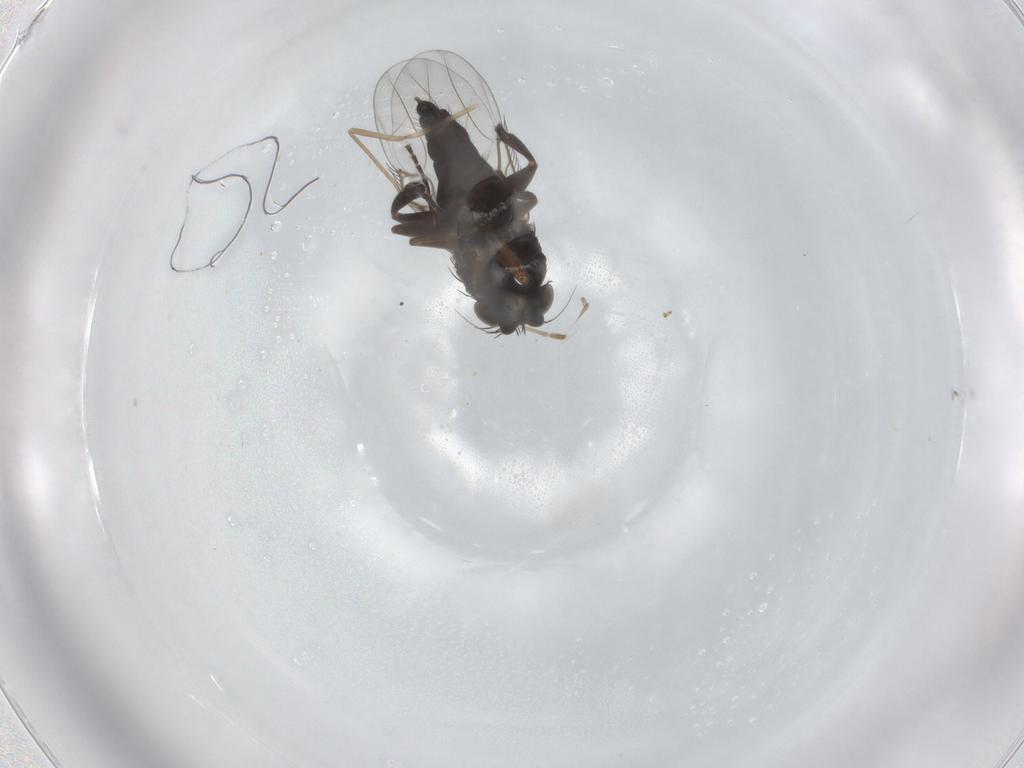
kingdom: Animalia
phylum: Arthropoda
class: Insecta
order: Diptera
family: Phoridae
